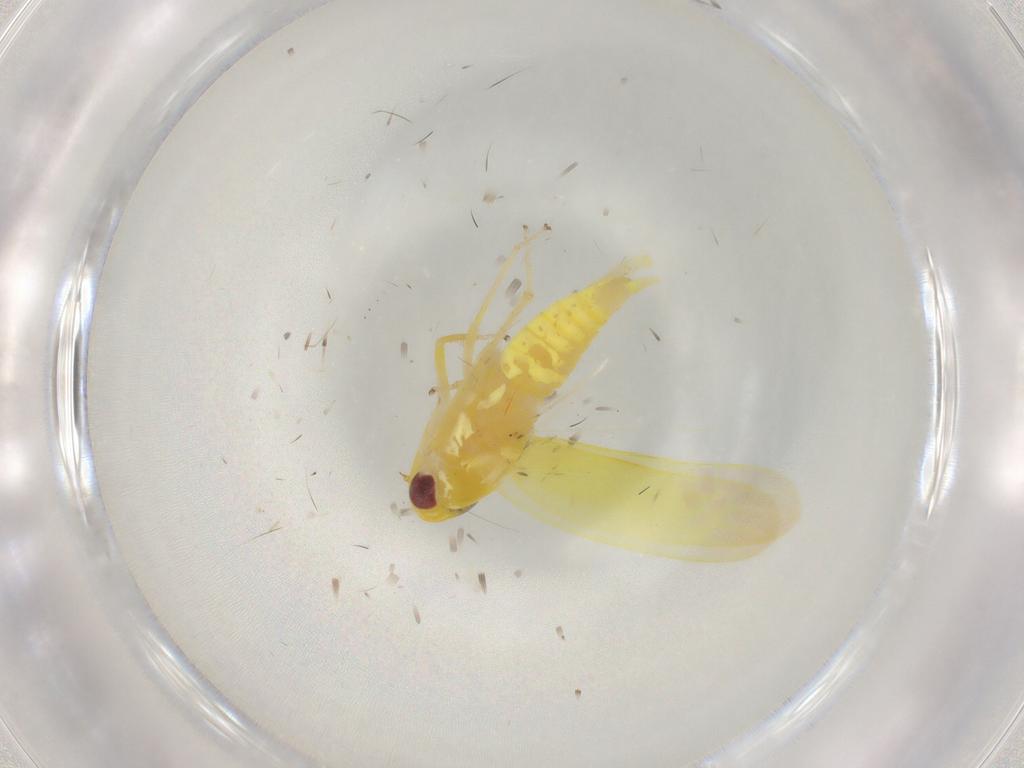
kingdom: Animalia
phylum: Arthropoda
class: Insecta
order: Hemiptera
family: Cicadellidae
